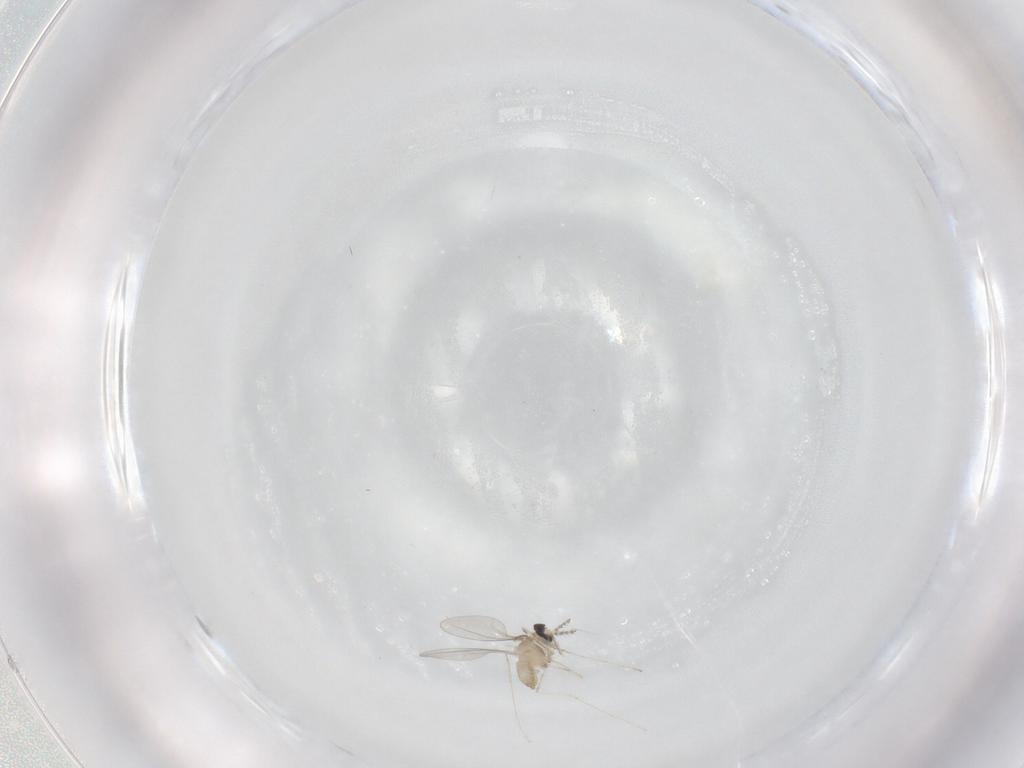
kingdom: Animalia
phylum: Arthropoda
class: Insecta
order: Diptera
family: Cecidomyiidae
